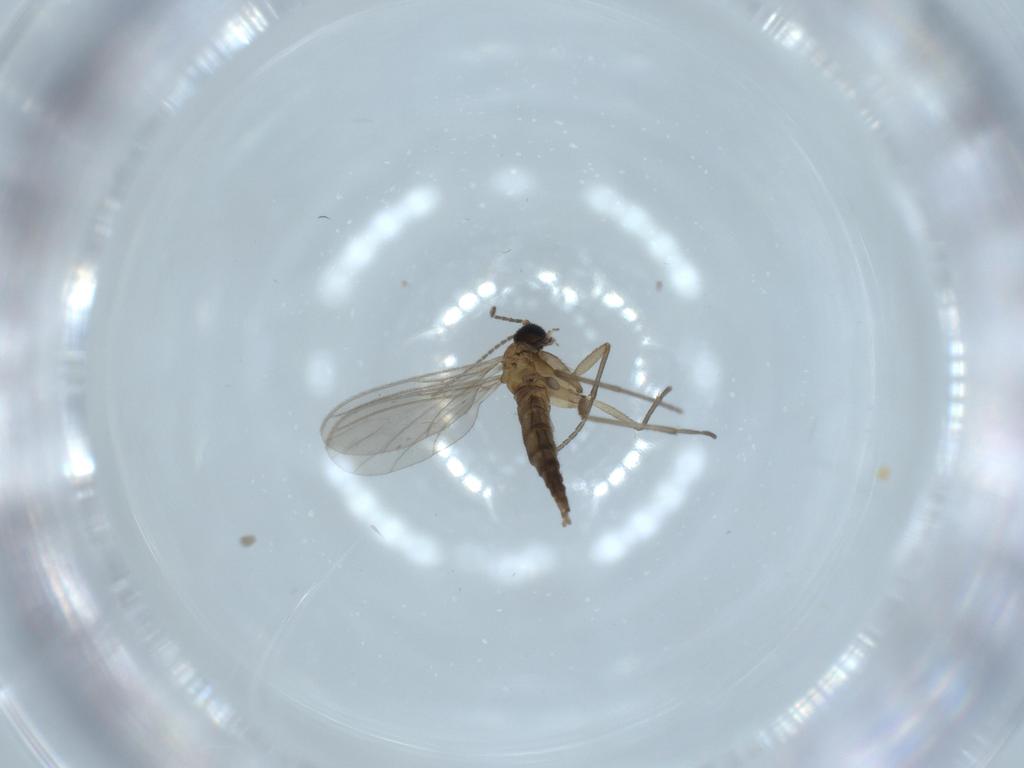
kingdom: Animalia
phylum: Arthropoda
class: Insecta
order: Diptera
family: Sciaridae
